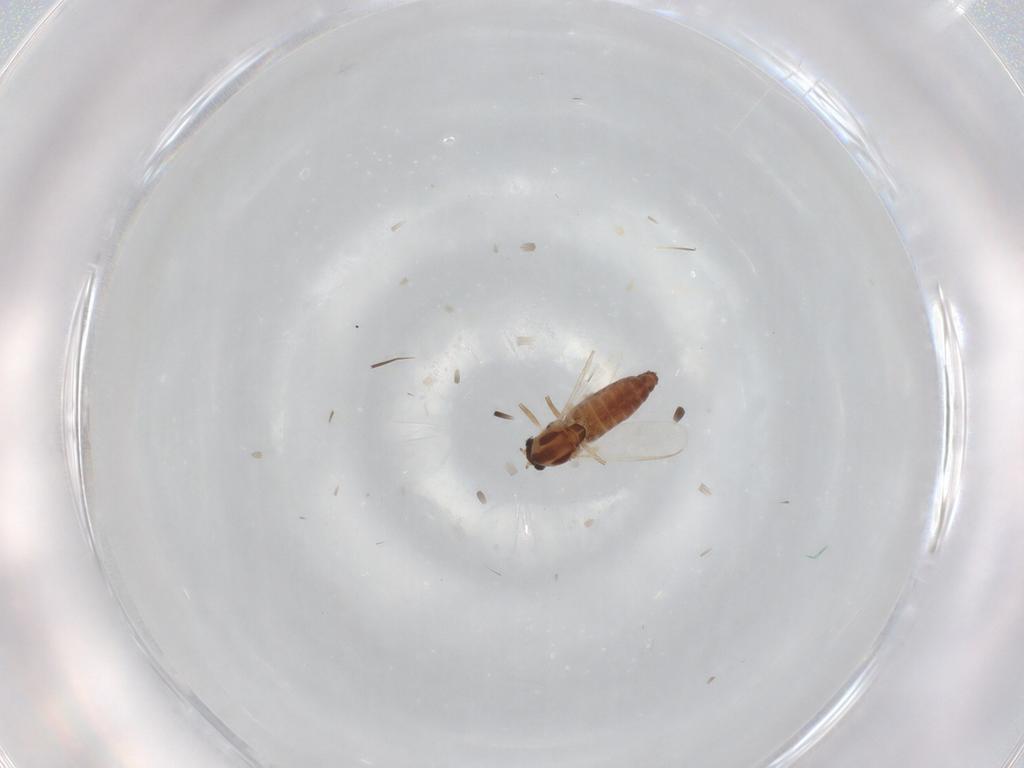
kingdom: Animalia
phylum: Arthropoda
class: Insecta
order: Diptera
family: Chironomidae
